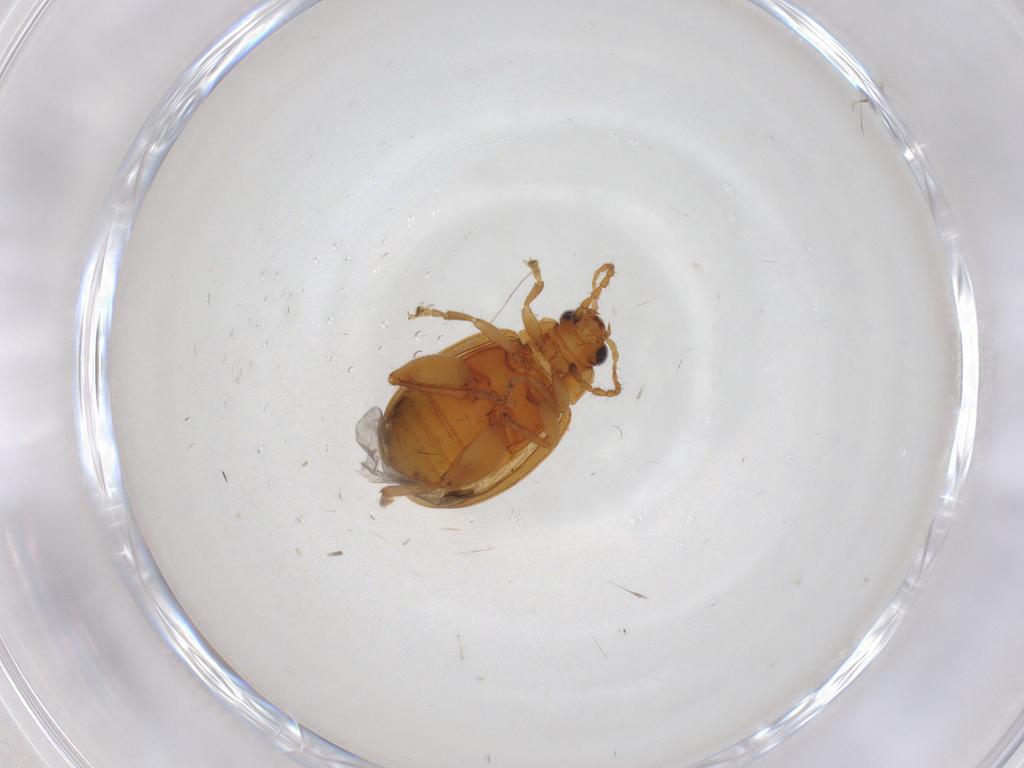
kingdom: Animalia
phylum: Arthropoda
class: Insecta
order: Coleoptera
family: Chrysomelidae
